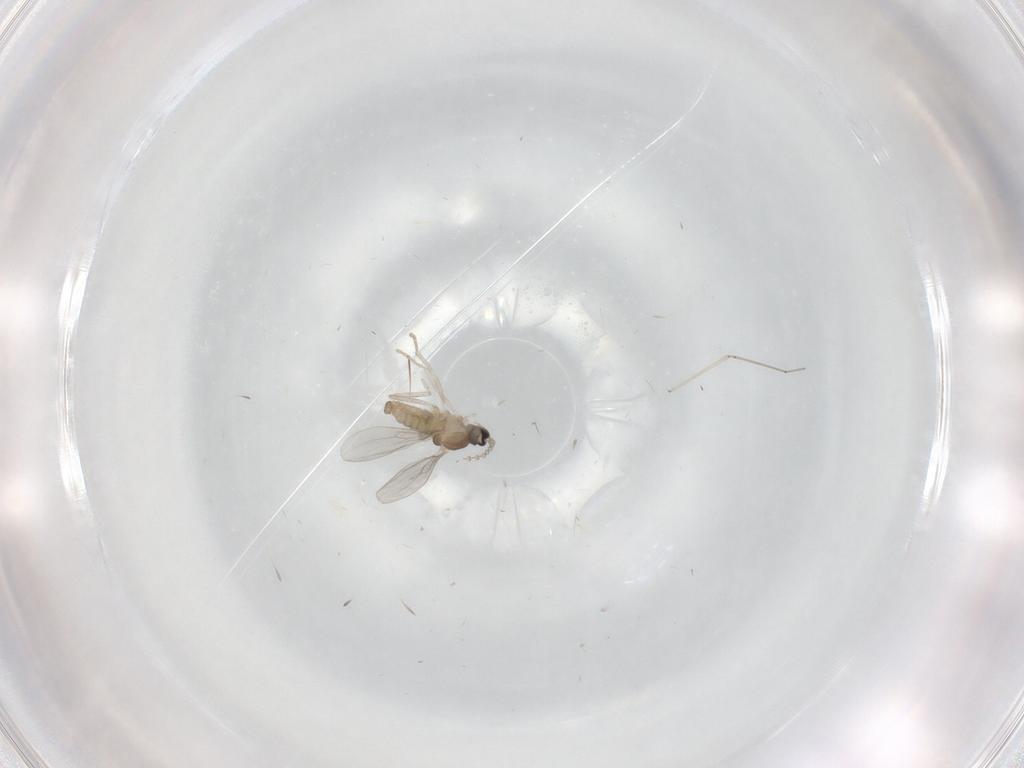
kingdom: Animalia
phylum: Arthropoda
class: Insecta
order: Diptera
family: Cecidomyiidae
